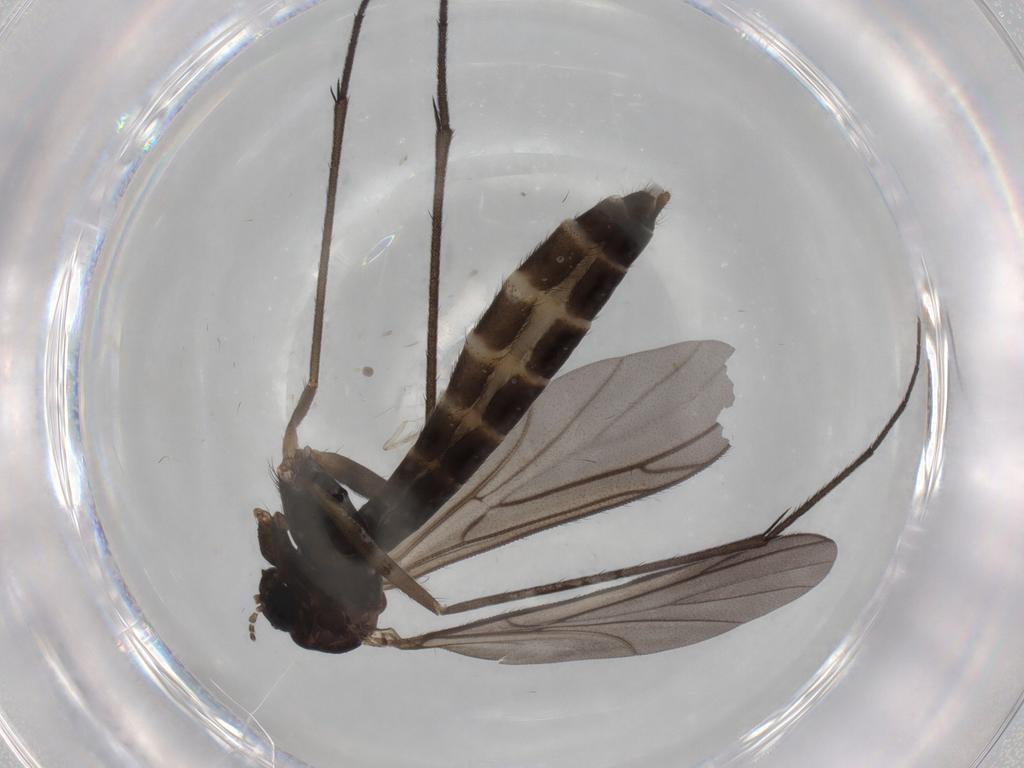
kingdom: Animalia
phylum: Arthropoda
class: Insecta
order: Diptera
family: Ditomyiidae
